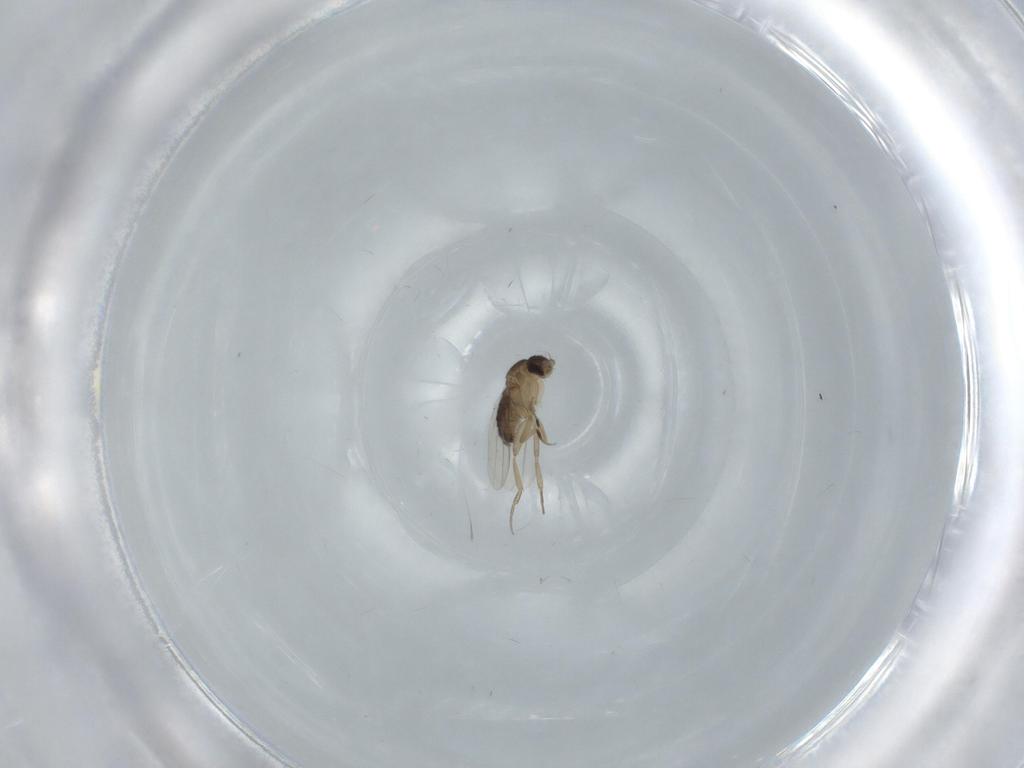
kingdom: Animalia
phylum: Arthropoda
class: Insecta
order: Diptera
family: Phoridae
